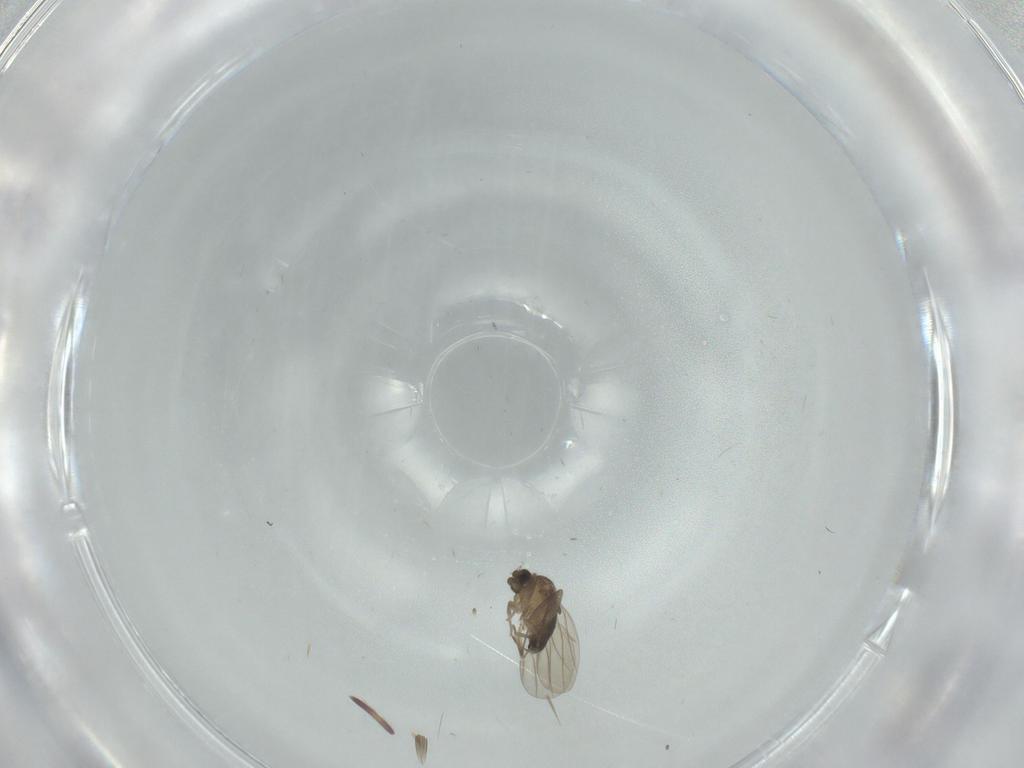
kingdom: Animalia
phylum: Arthropoda
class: Insecta
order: Diptera
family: Phoridae
